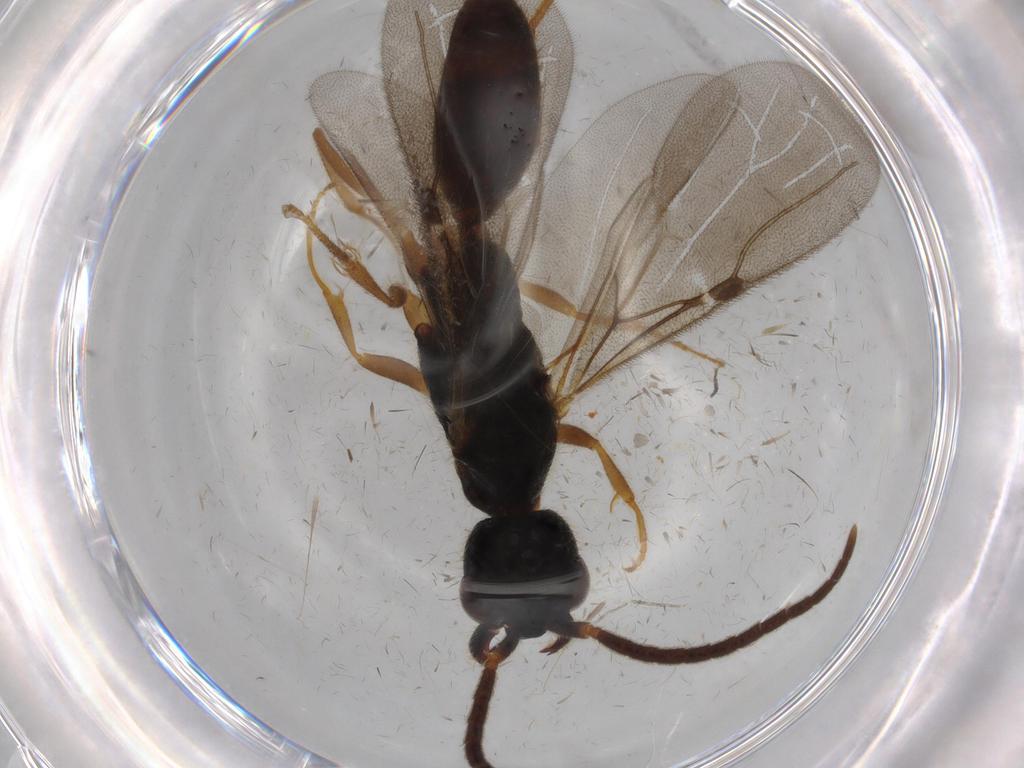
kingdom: Animalia
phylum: Arthropoda
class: Insecta
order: Hymenoptera
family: Bethylidae
